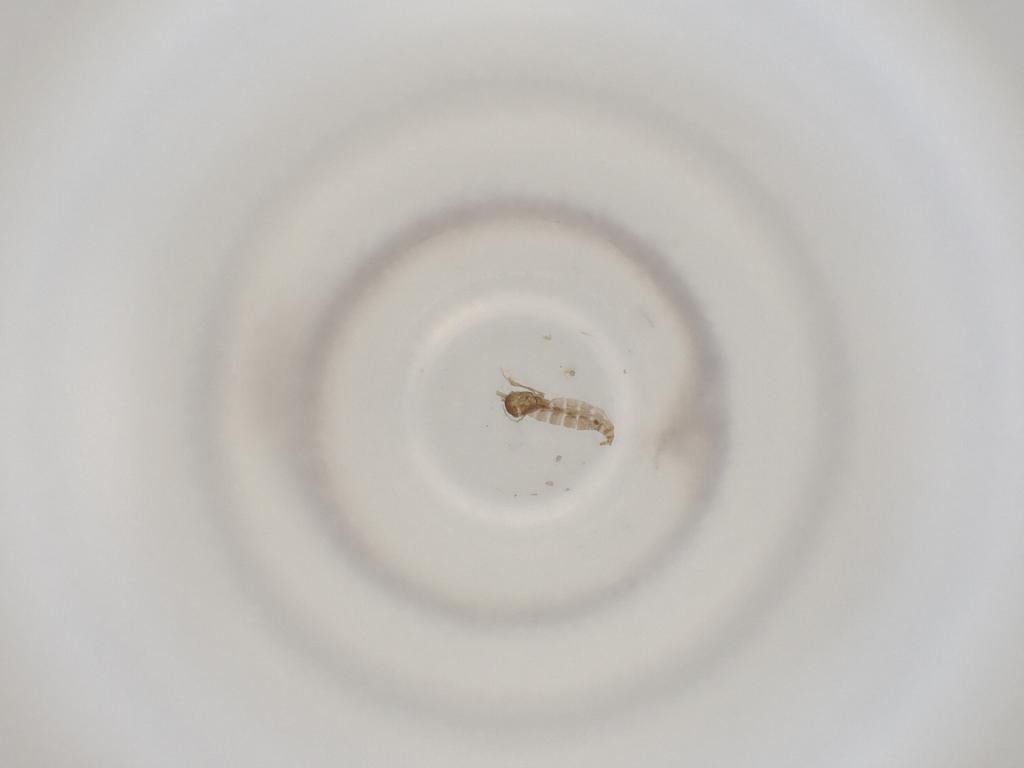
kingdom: Animalia
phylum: Arthropoda
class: Insecta
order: Diptera
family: Cecidomyiidae
